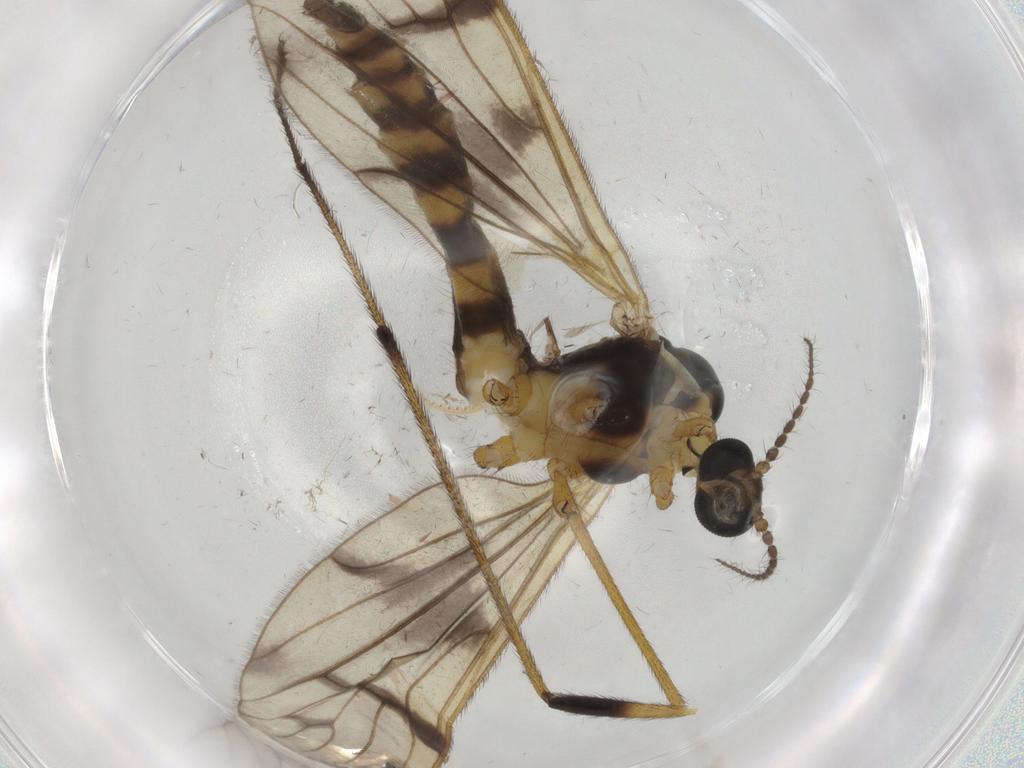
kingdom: Animalia
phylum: Arthropoda
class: Insecta
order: Diptera
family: Limoniidae
